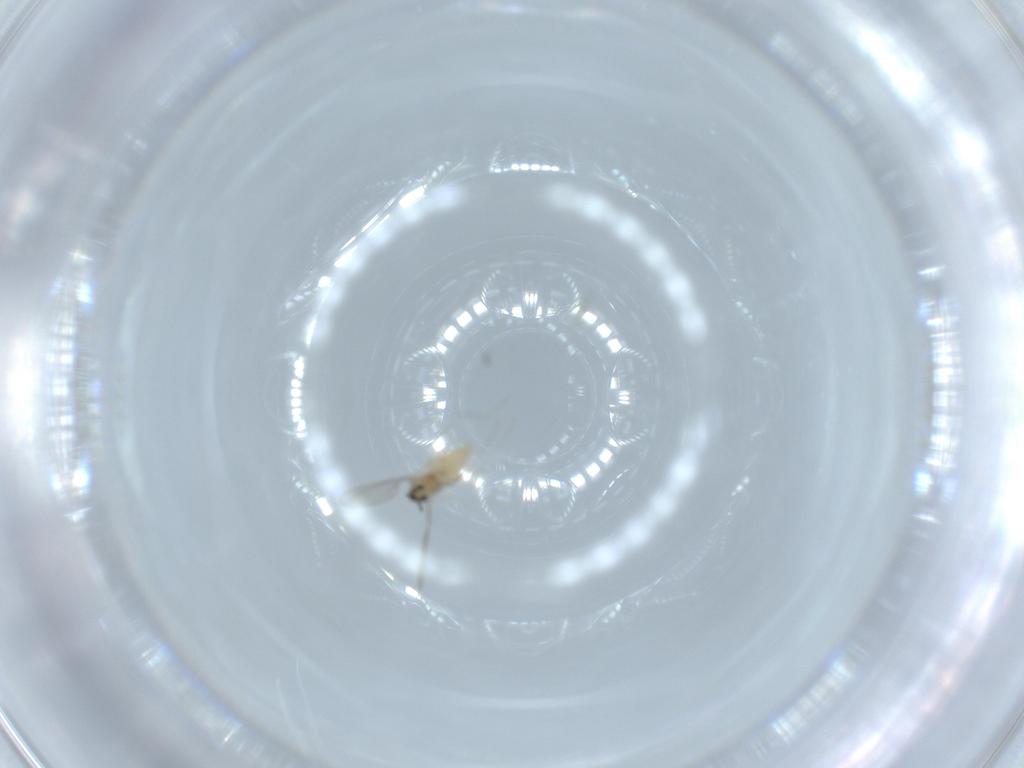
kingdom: Animalia
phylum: Arthropoda
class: Insecta
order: Diptera
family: Cecidomyiidae
